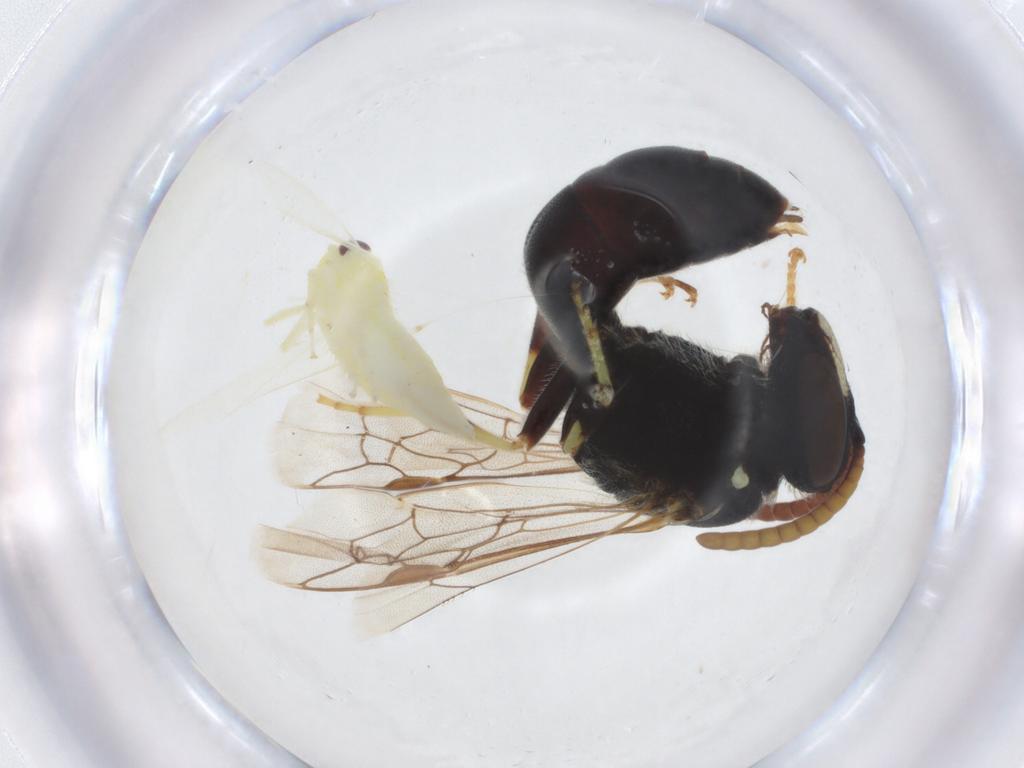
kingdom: Animalia
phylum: Arthropoda
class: Insecta
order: Hymenoptera
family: Colletidae
